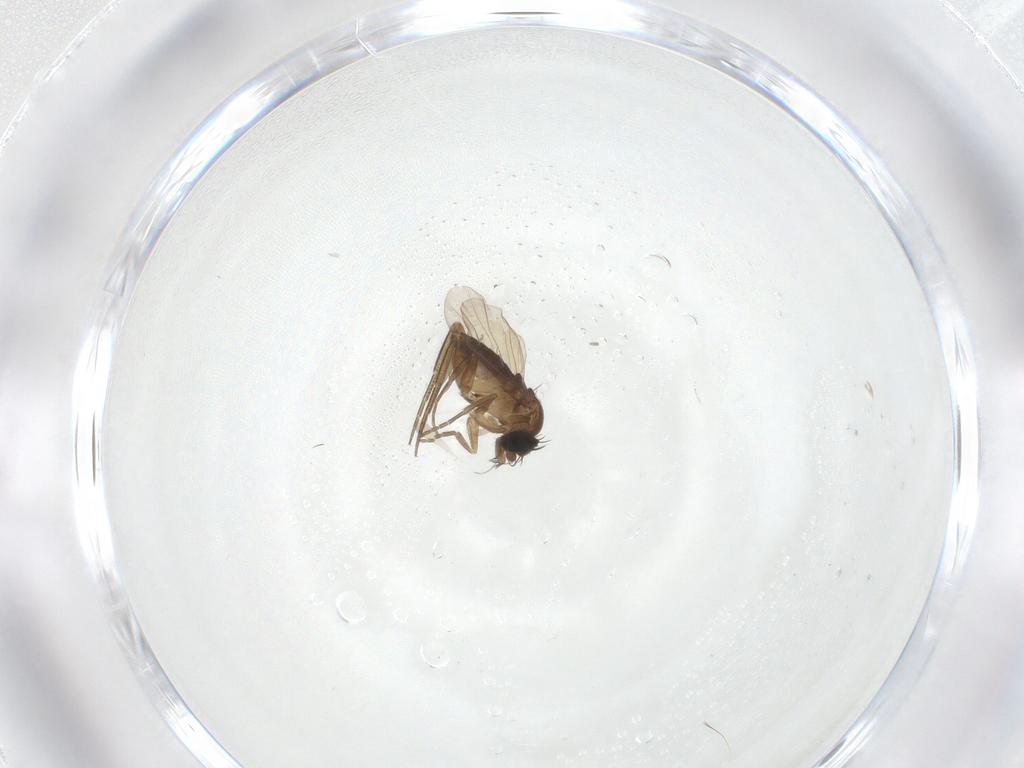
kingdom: Animalia
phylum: Arthropoda
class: Insecta
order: Diptera
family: Phoridae
